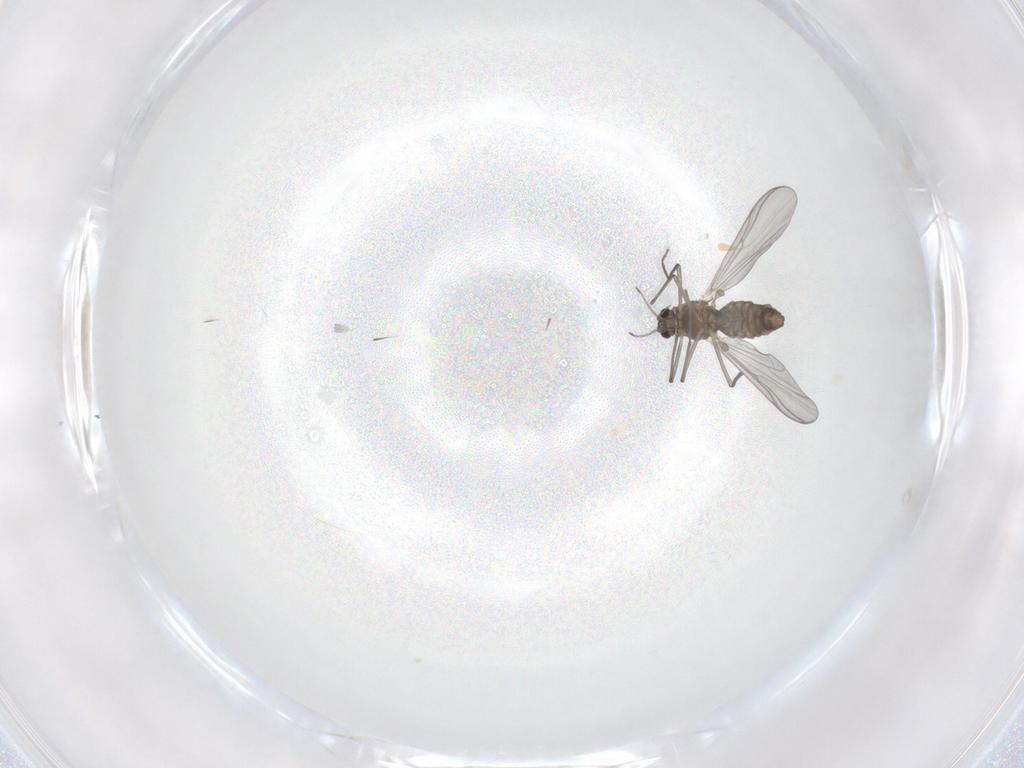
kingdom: Animalia
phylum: Arthropoda
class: Insecta
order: Diptera
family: Chironomidae
